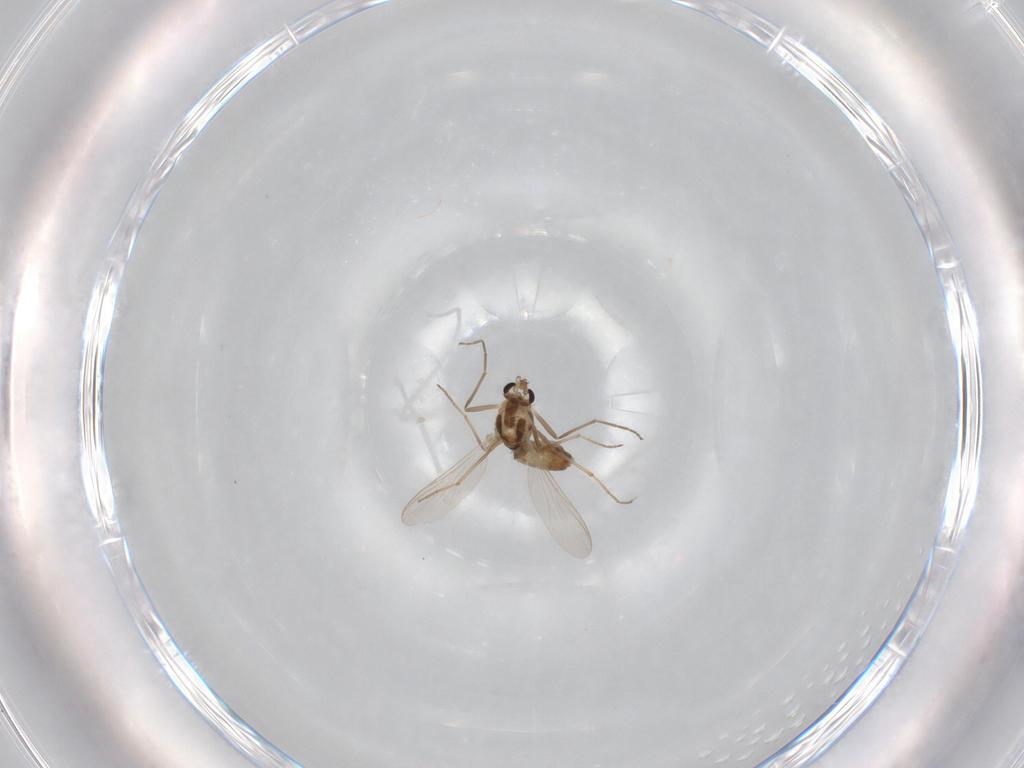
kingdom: Animalia
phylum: Arthropoda
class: Insecta
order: Diptera
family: Chironomidae
